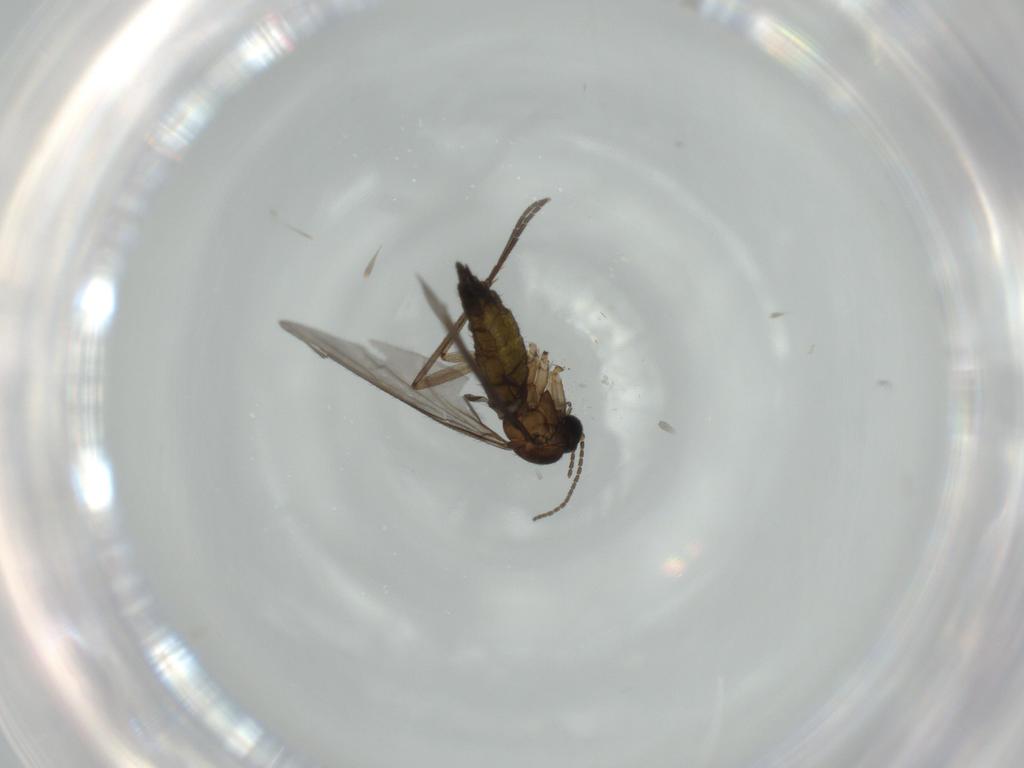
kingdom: Animalia
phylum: Arthropoda
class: Insecta
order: Diptera
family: Sciaridae
